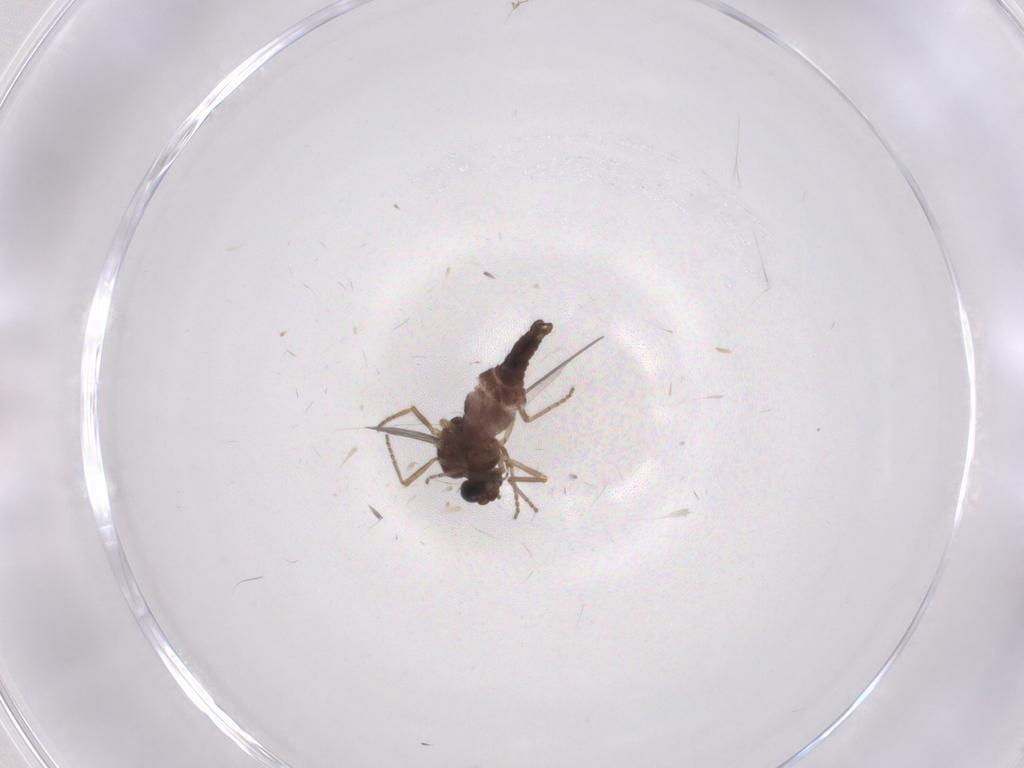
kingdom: Animalia
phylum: Arthropoda
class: Insecta
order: Diptera
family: Ceratopogonidae
